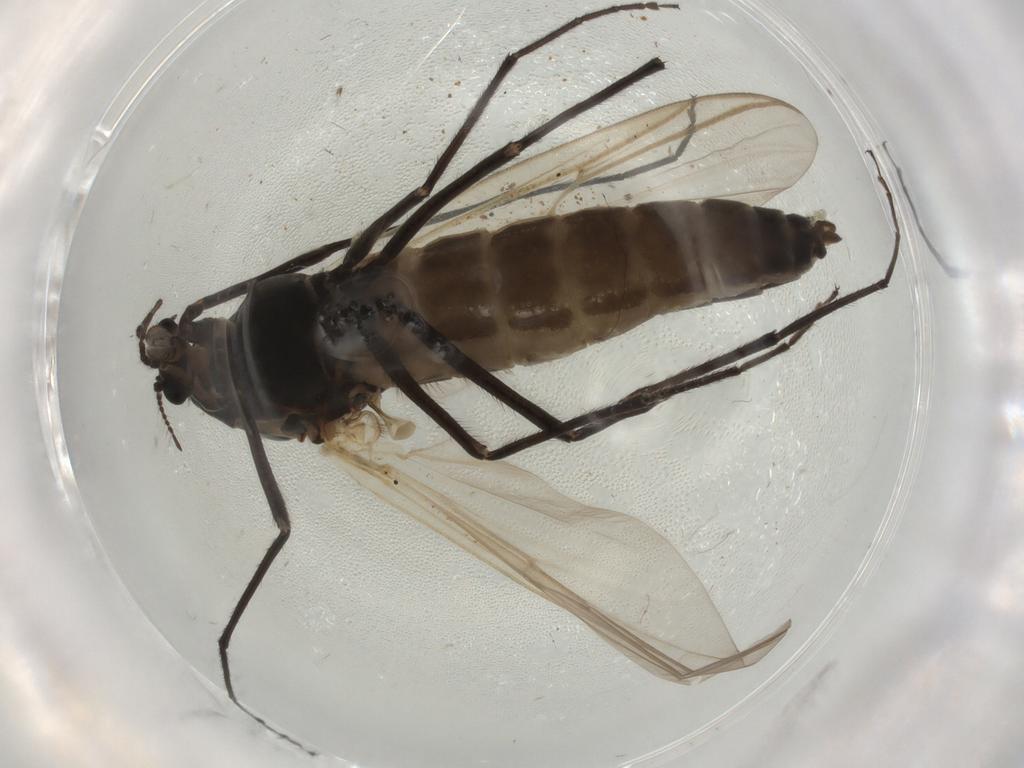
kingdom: Animalia
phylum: Arthropoda
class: Insecta
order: Diptera
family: Chironomidae
